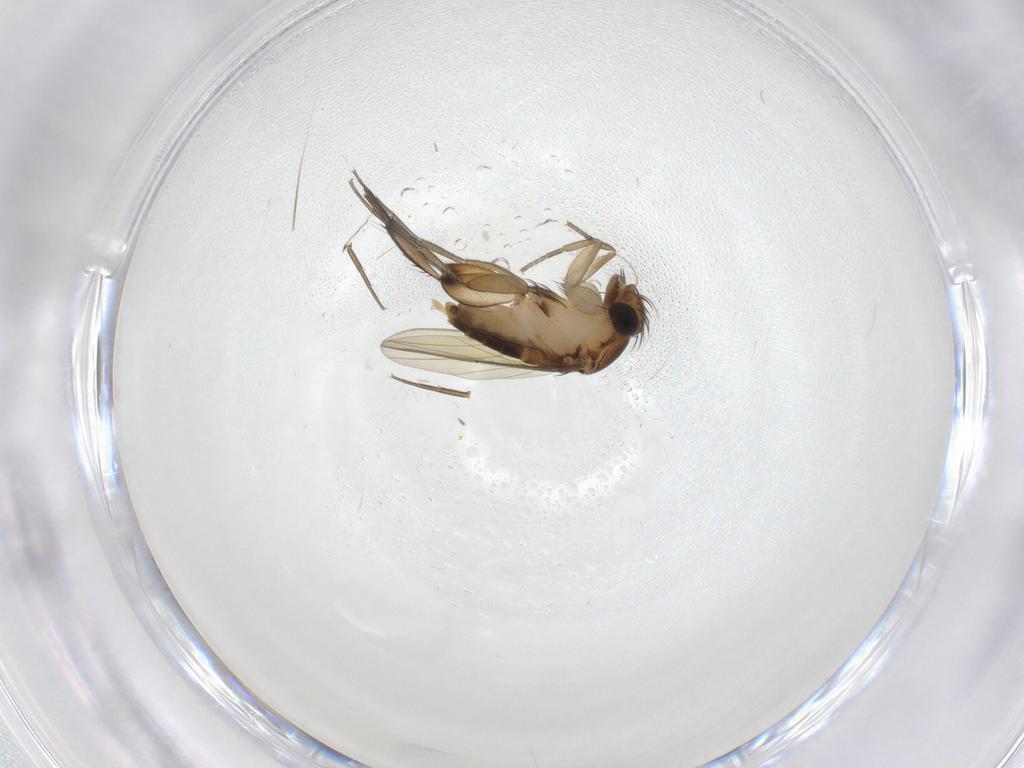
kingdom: Animalia
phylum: Arthropoda
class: Insecta
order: Diptera
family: Phoridae
